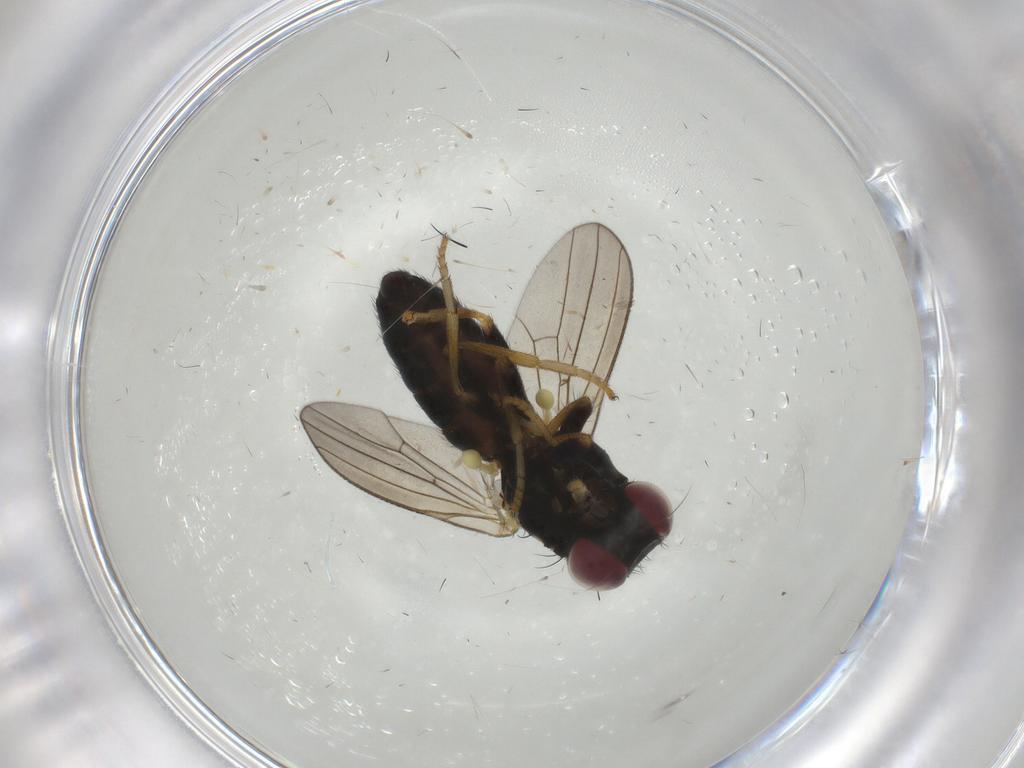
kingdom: Animalia
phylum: Arthropoda
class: Insecta
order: Diptera
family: Chamaemyiidae
